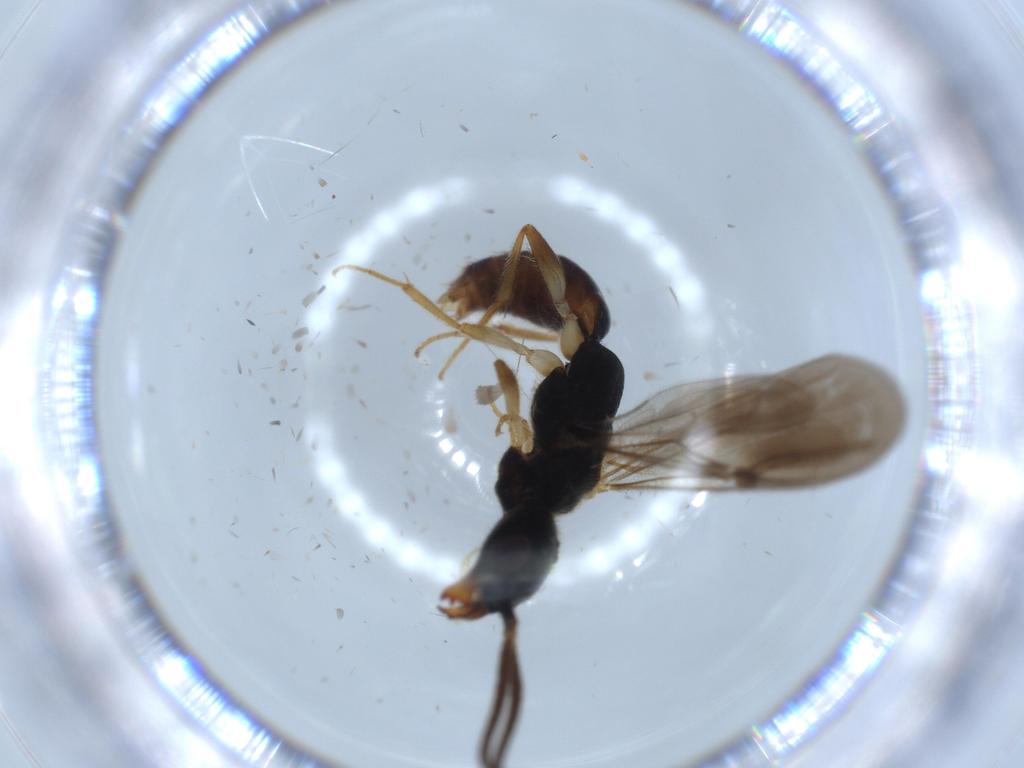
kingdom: Animalia
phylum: Arthropoda
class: Insecta
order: Hymenoptera
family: Bethylidae
